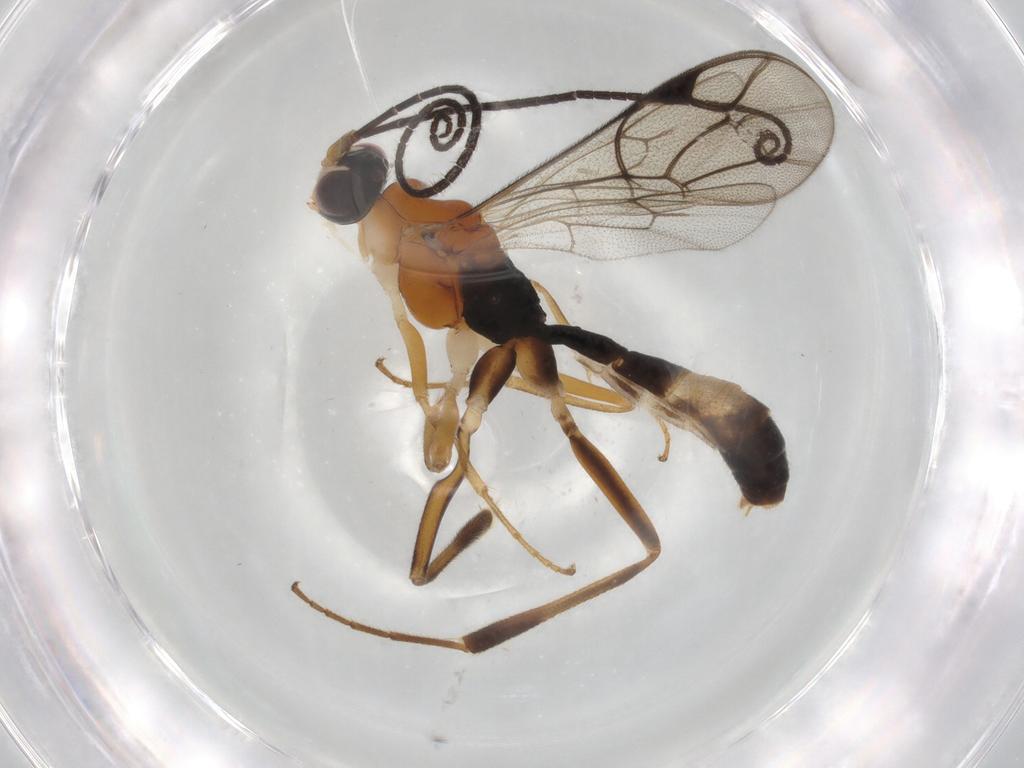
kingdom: Animalia
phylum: Arthropoda
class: Insecta
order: Hymenoptera
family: Ichneumonidae
